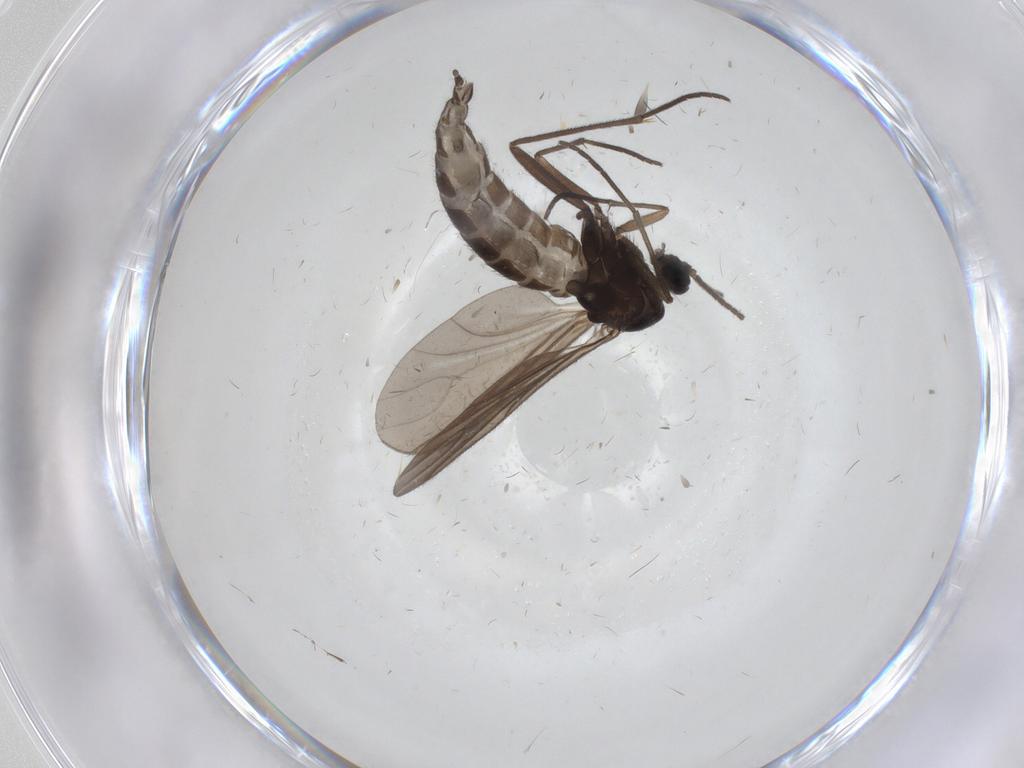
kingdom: Animalia
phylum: Arthropoda
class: Insecta
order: Diptera
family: Sciaridae
